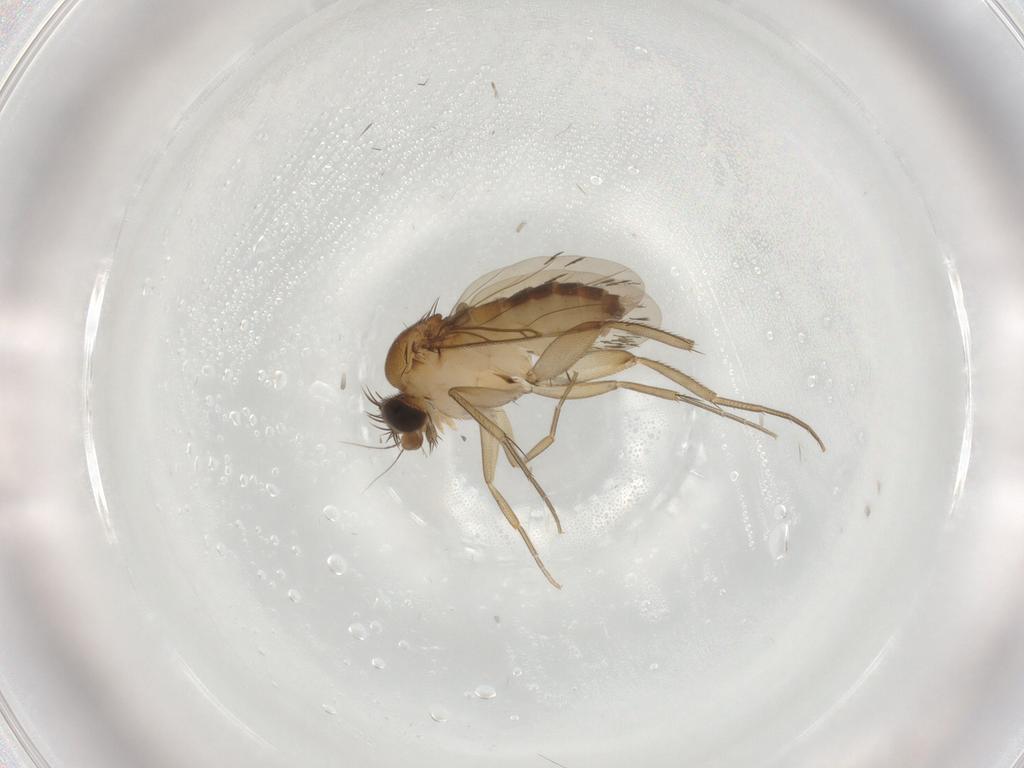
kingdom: Animalia
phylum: Arthropoda
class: Insecta
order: Diptera
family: Phoridae
